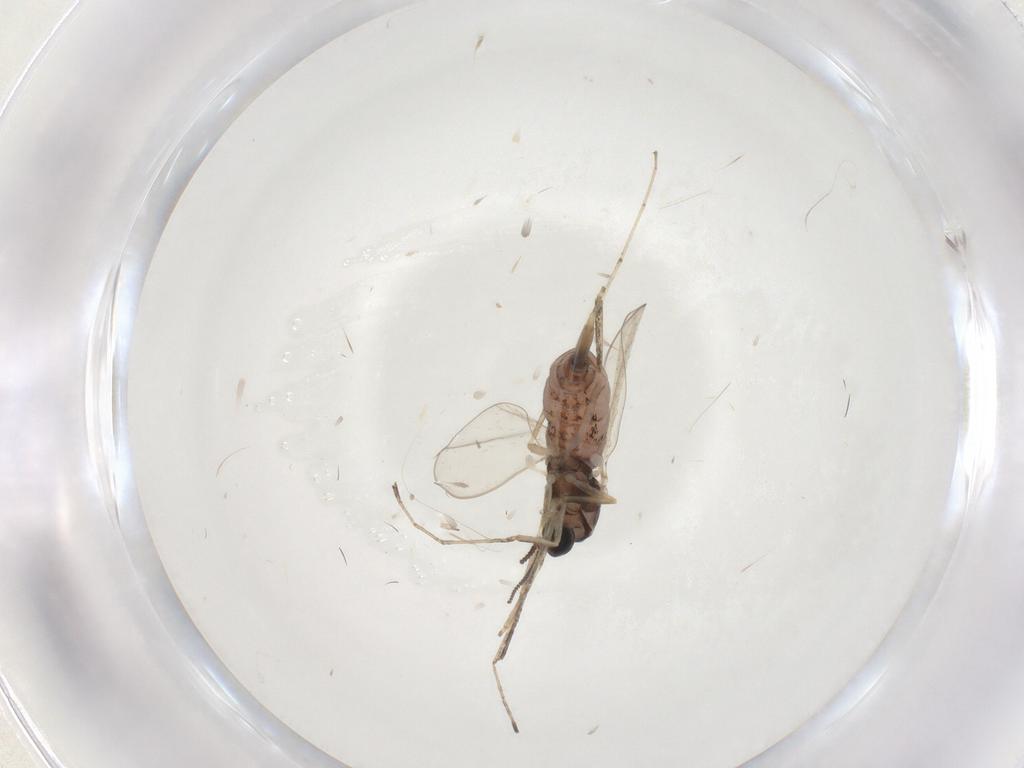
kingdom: Animalia
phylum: Arthropoda
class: Insecta
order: Diptera
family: Cecidomyiidae
